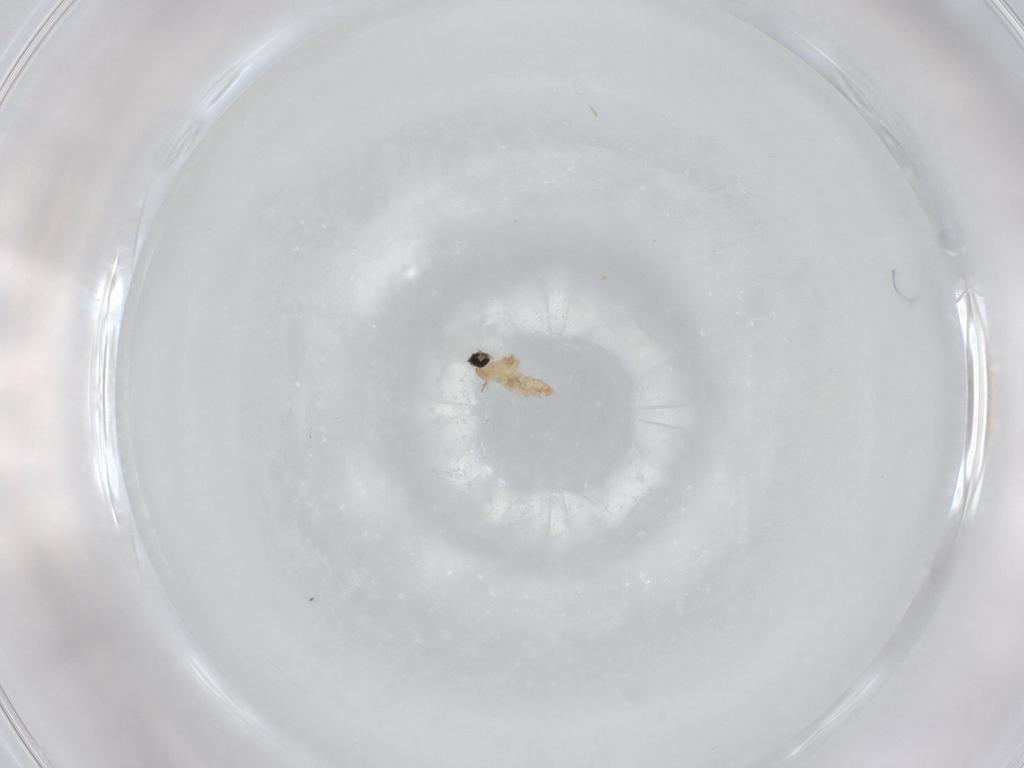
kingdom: Animalia
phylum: Arthropoda
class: Insecta
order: Diptera
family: Cecidomyiidae
